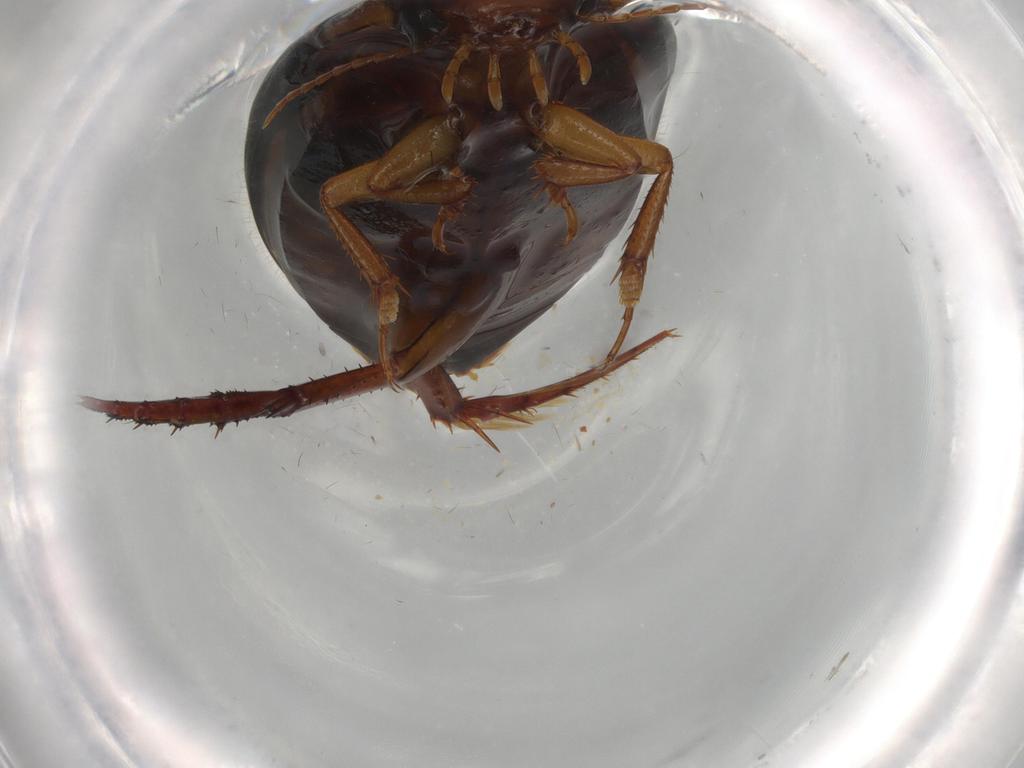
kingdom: Animalia
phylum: Arthropoda
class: Insecta
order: Coleoptera
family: Dytiscidae
